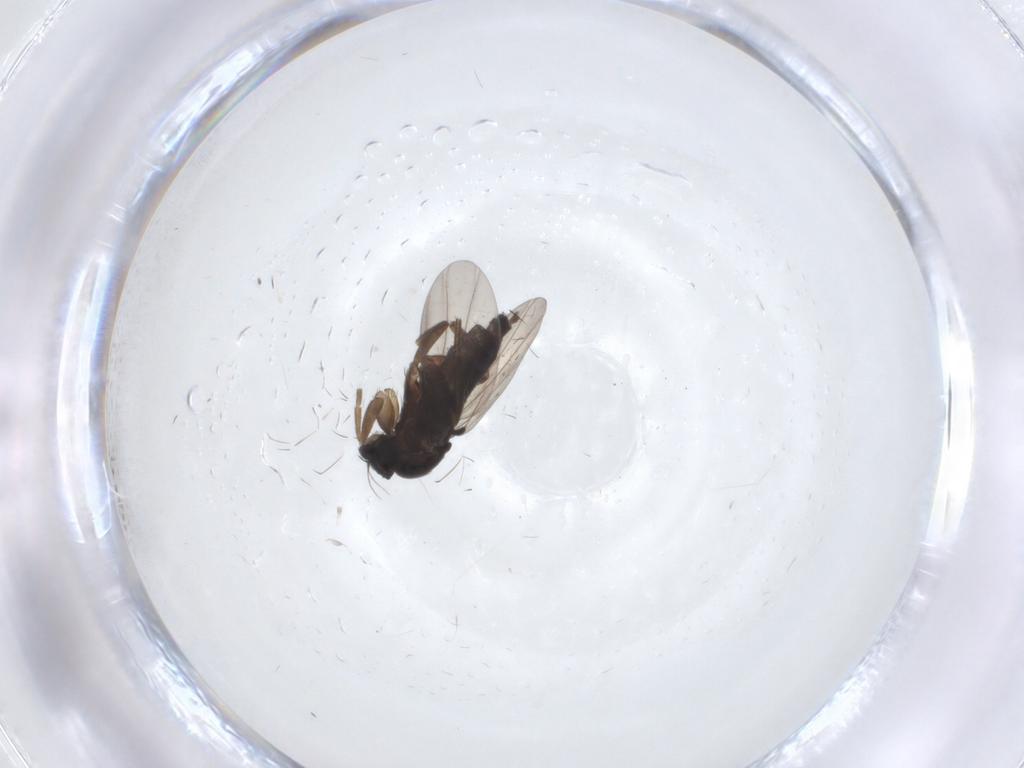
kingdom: Animalia
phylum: Arthropoda
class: Insecta
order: Diptera
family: Phoridae
